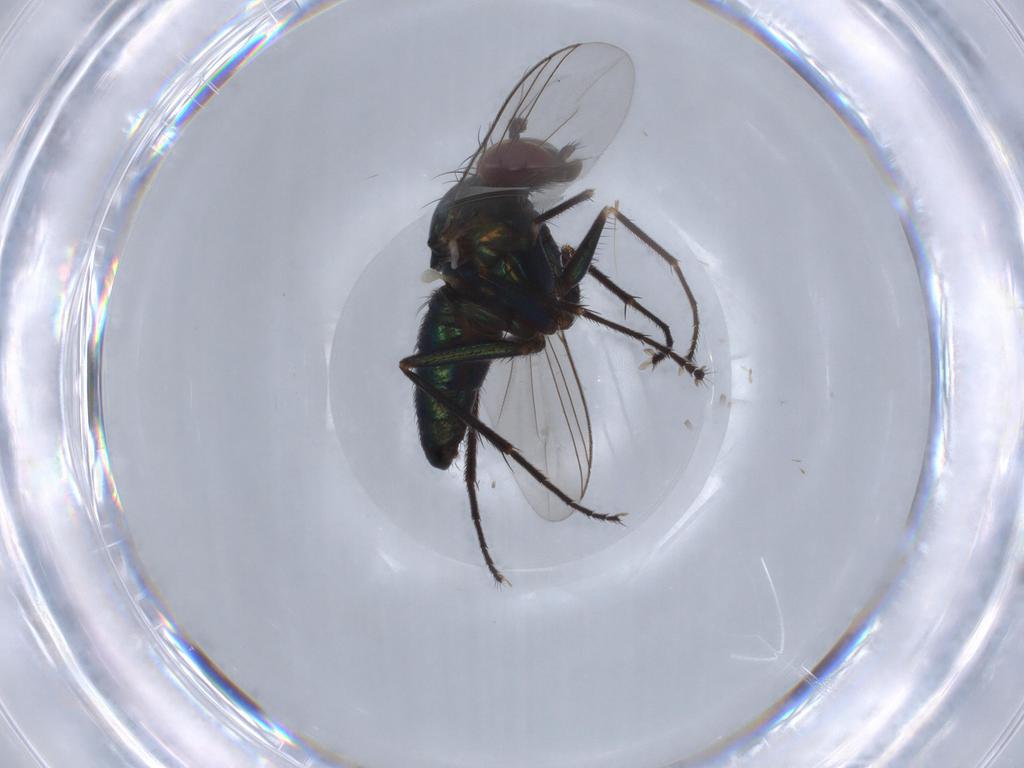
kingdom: Animalia
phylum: Arthropoda
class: Insecta
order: Diptera
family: Dolichopodidae
